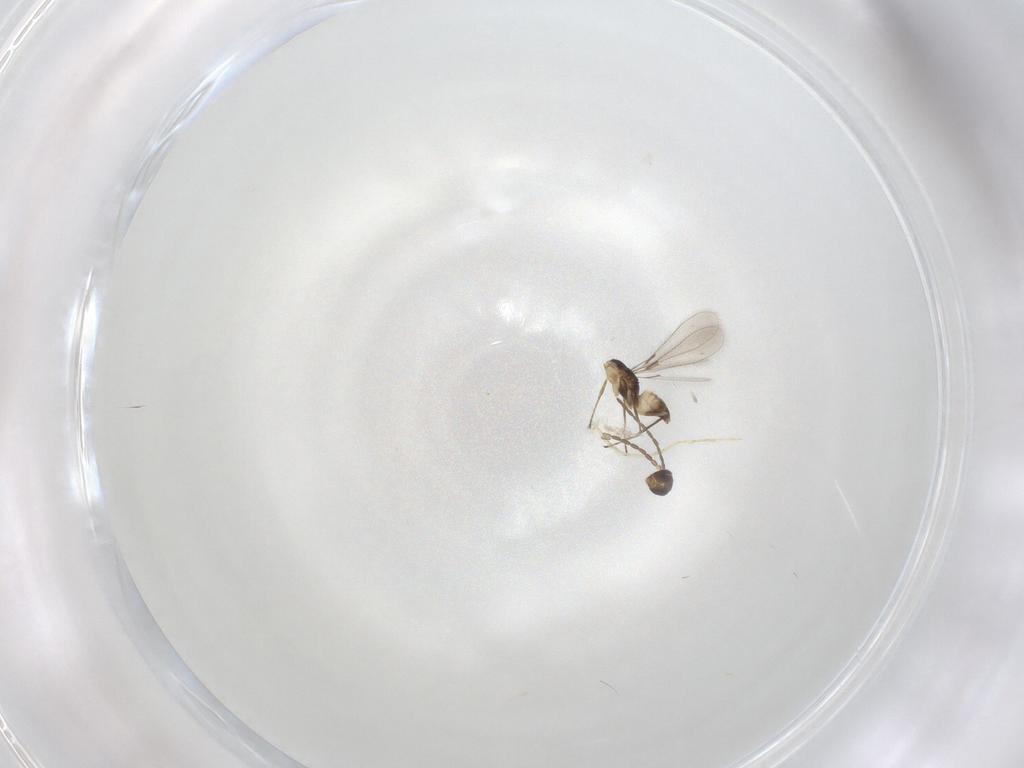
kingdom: Animalia
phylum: Arthropoda
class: Insecta
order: Hymenoptera
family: Mymaridae
